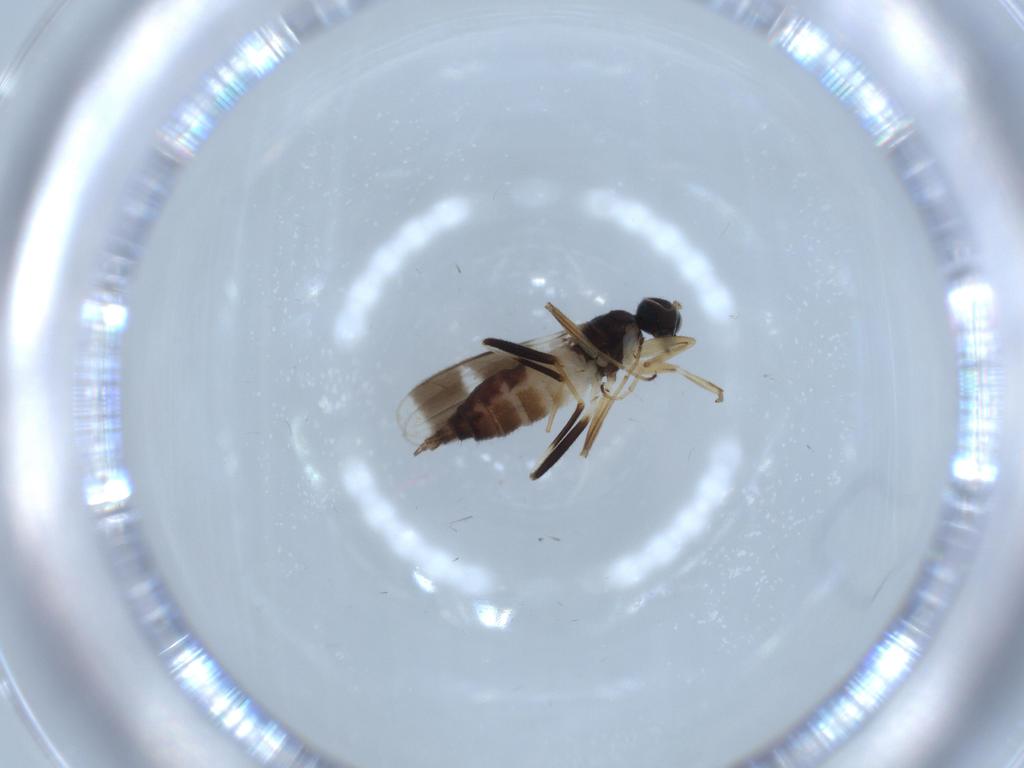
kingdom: Animalia
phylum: Arthropoda
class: Insecta
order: Diptera
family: Hybotidae
